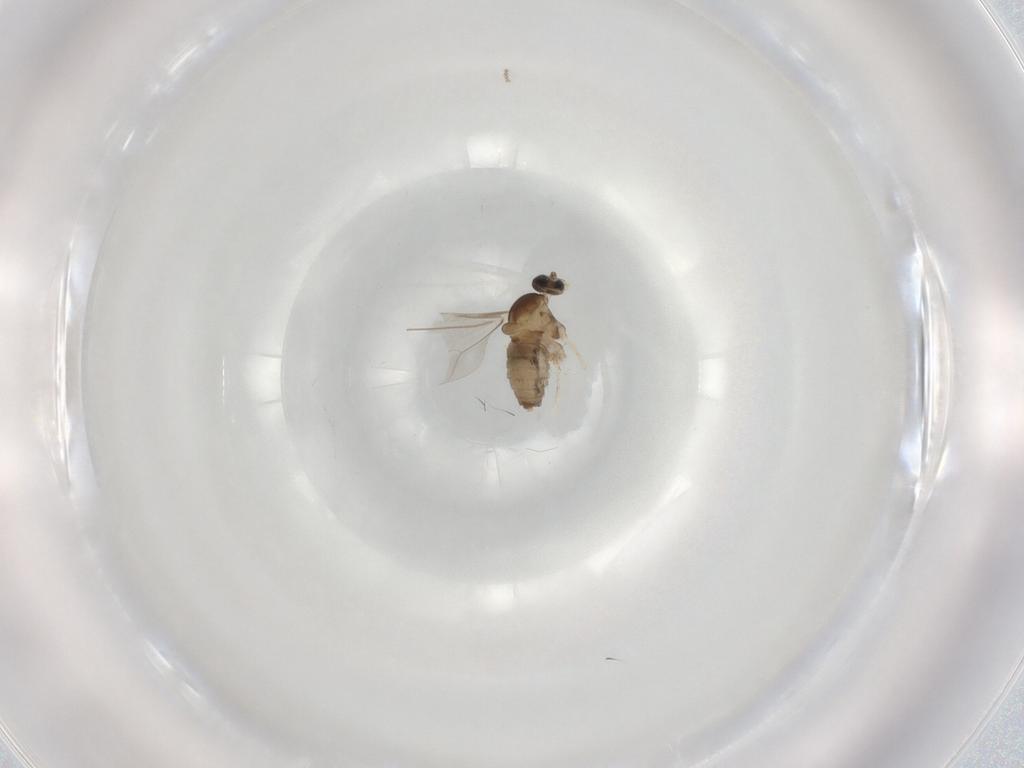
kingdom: Animalia
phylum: Arthropoda
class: Insecta
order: Diptera
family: Cecidomyiidae
